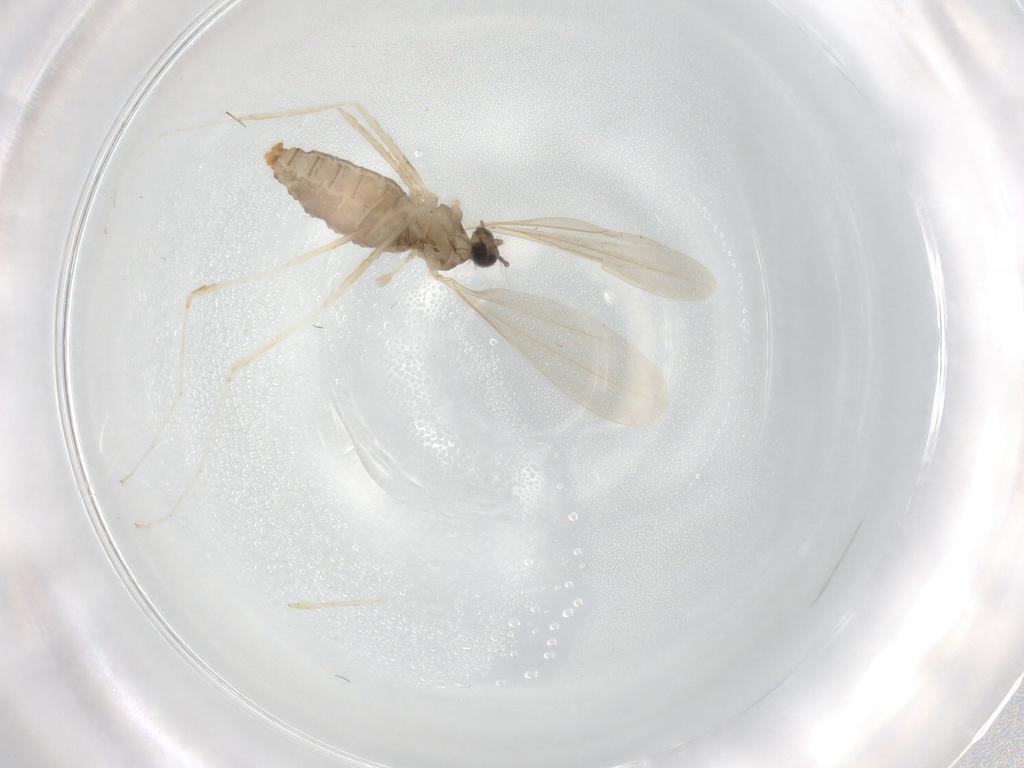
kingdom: Animalia
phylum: Arthropoda
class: Insecta
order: Diptera
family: Cecidomyiidae
